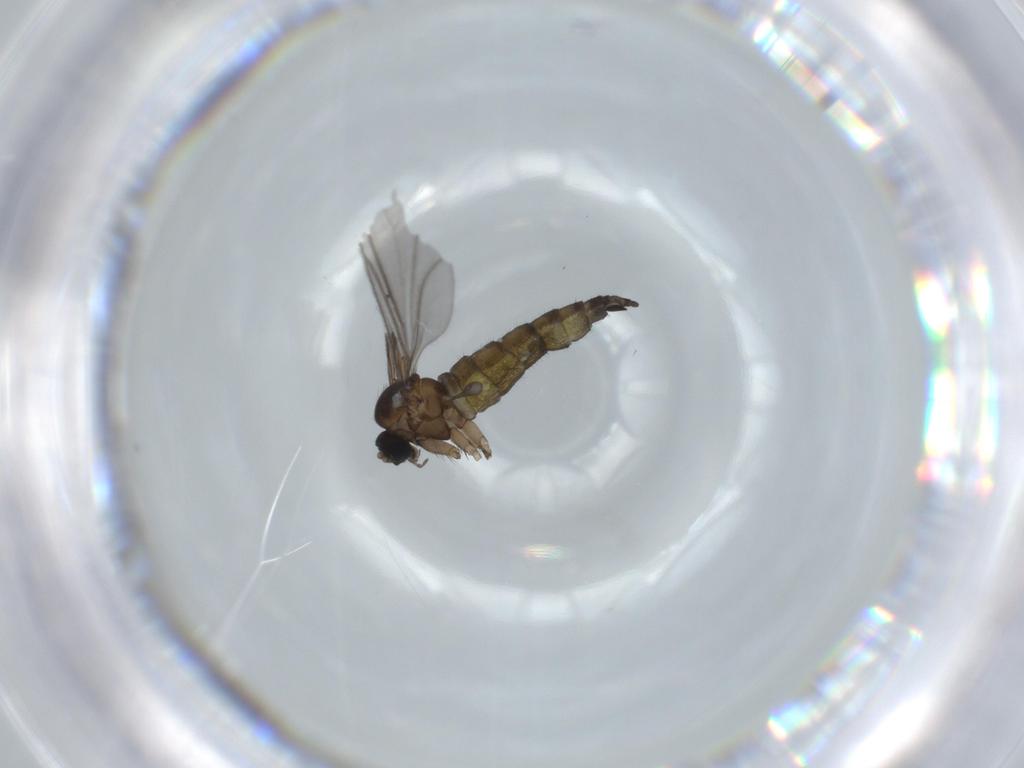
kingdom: Animalia
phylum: Arthropoda
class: Insecta
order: Diptera
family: Sciaridae
